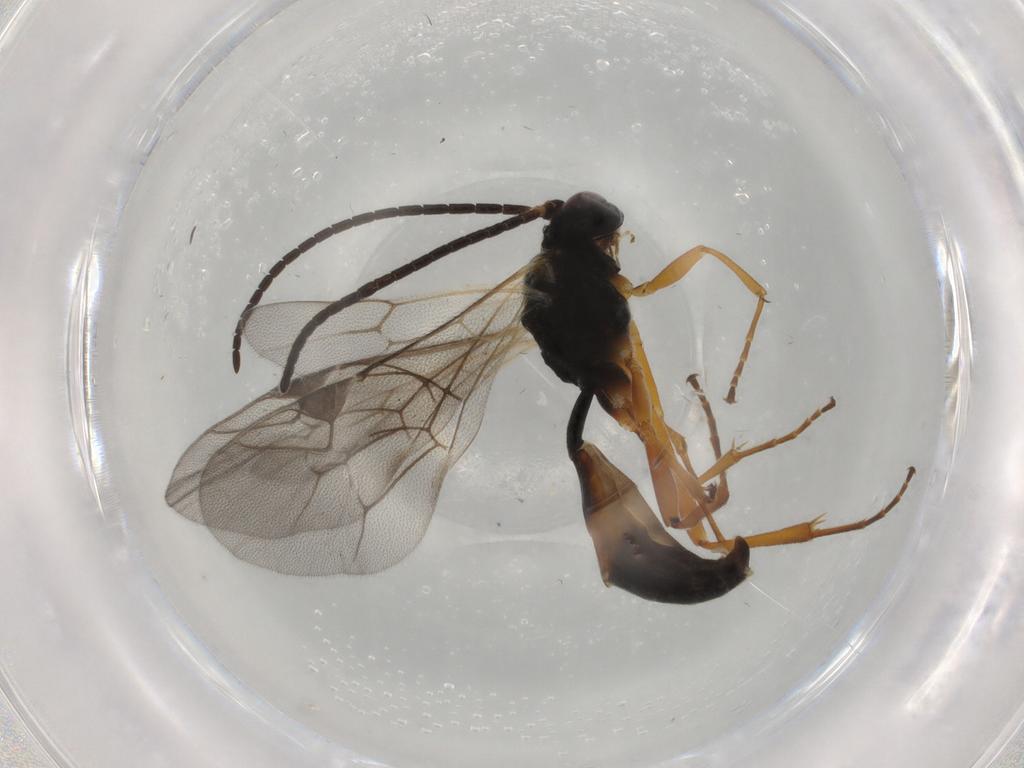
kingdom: Animalia
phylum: Arthropoda
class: Insecta
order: Hymenoptera
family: Ichneumonidae
